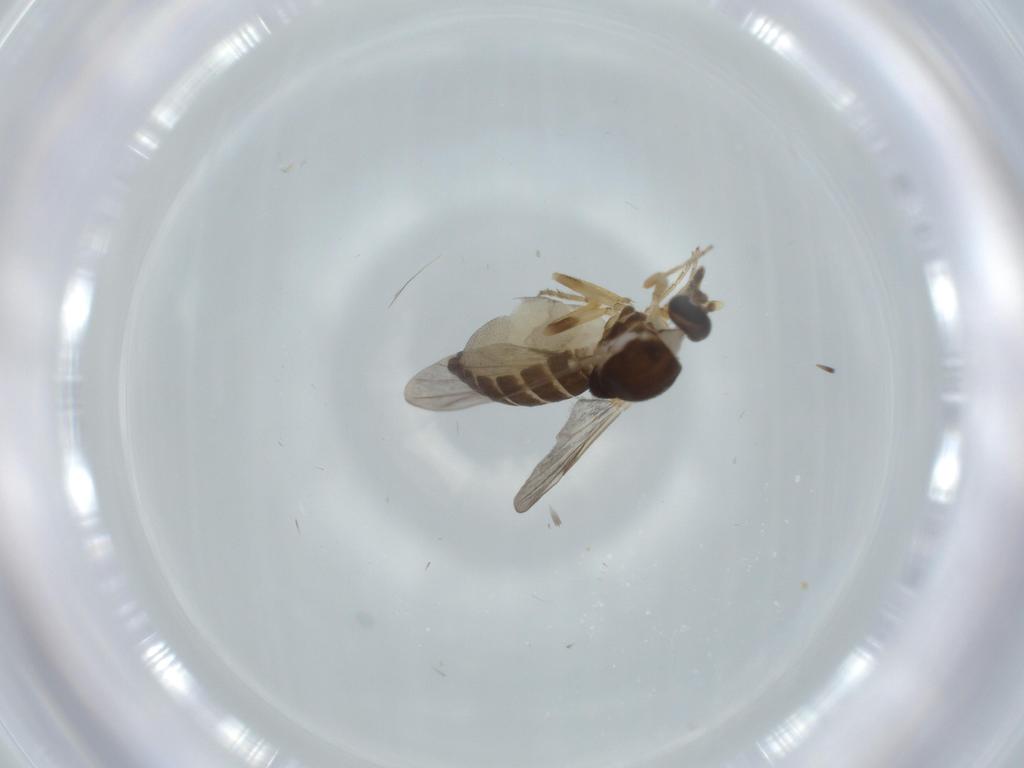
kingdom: Animalia
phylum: Arthropoda
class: Insecta
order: Diptera
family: Ceratopogonidae
